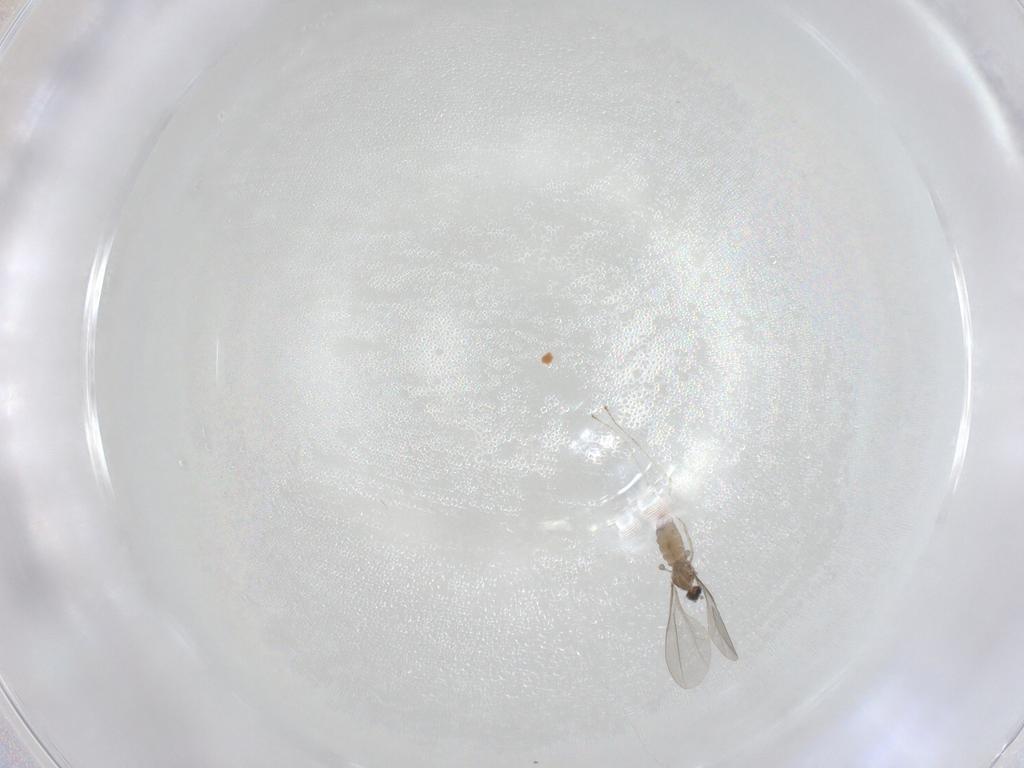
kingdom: Animalia
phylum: Arthropoda
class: Insecta
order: Diptera
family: Cecidomyiidae
